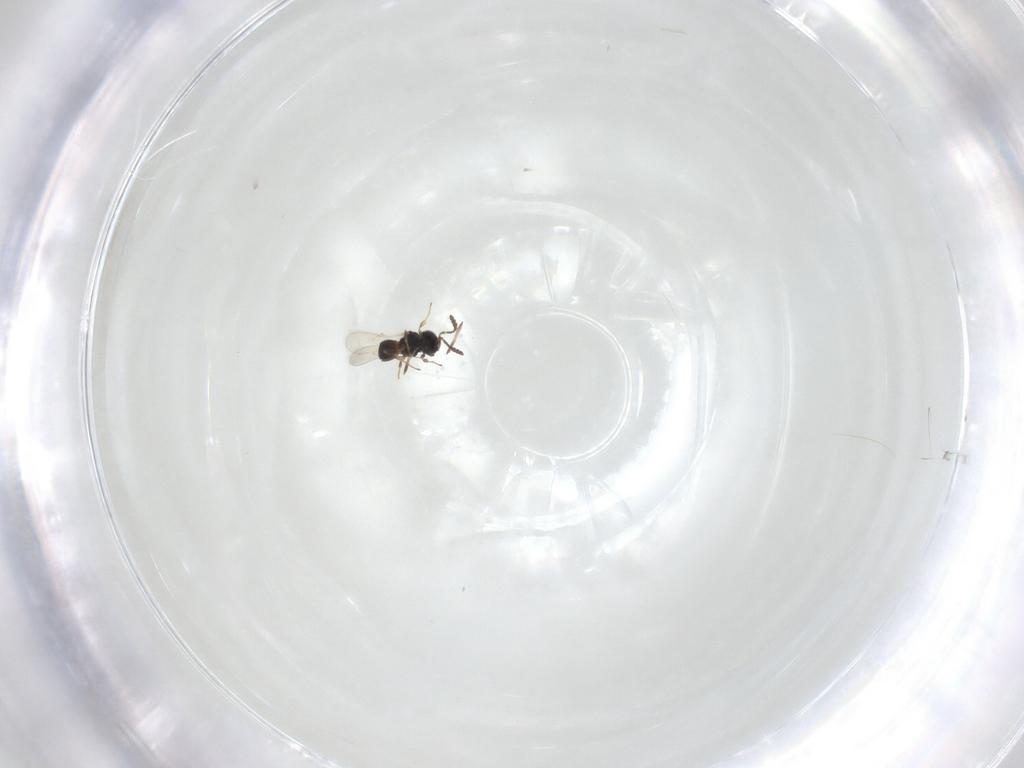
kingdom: Animalia
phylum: Arthropoda
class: Insecta
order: Hymenoptera
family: Scelionidae
